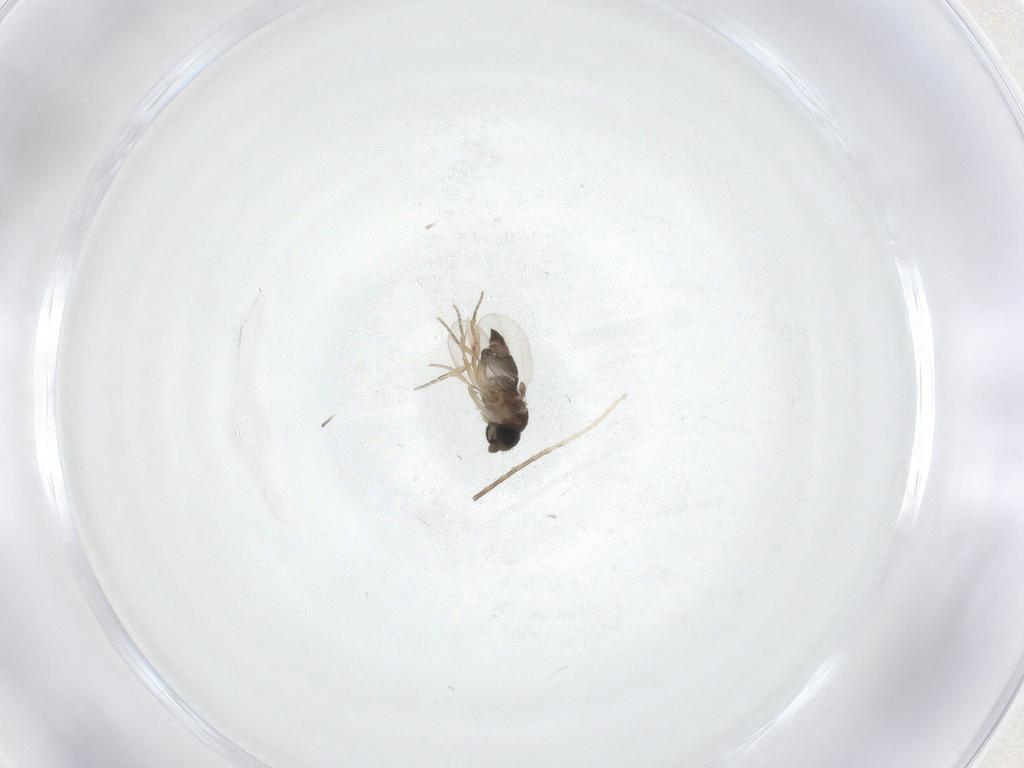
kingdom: Animalia
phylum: Arthropoda
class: Insecta
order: Diptera
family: Phoridae
